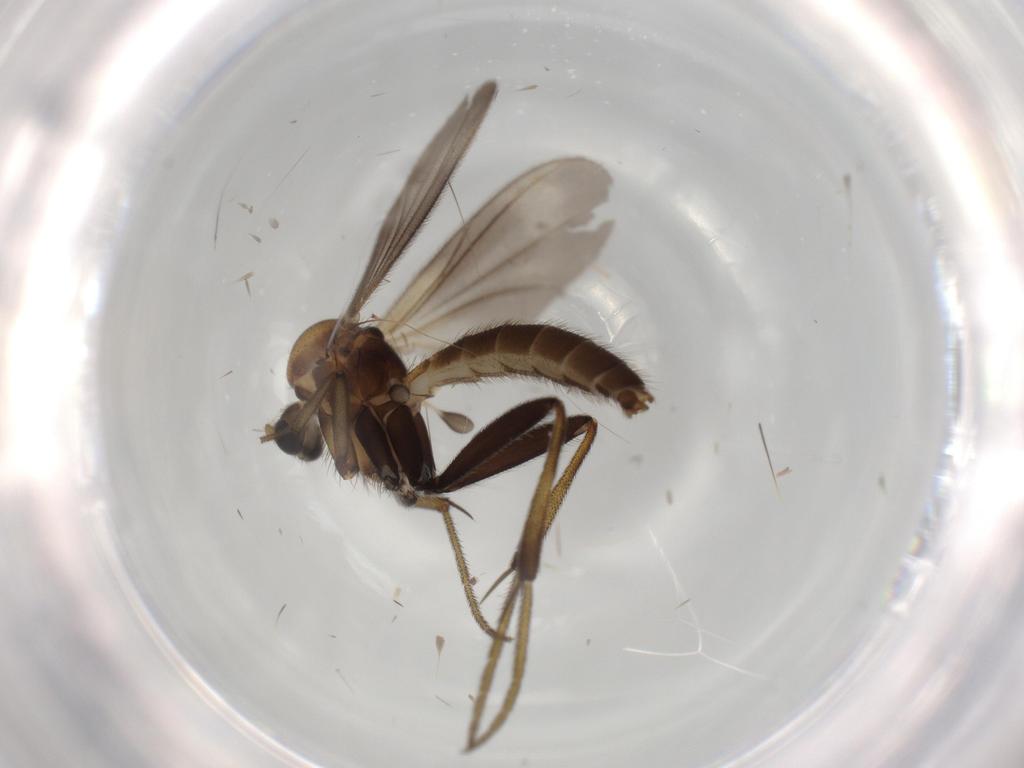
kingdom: Animalia
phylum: Arthropoda
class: Insecta
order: Diptera
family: Mycetophilidae
